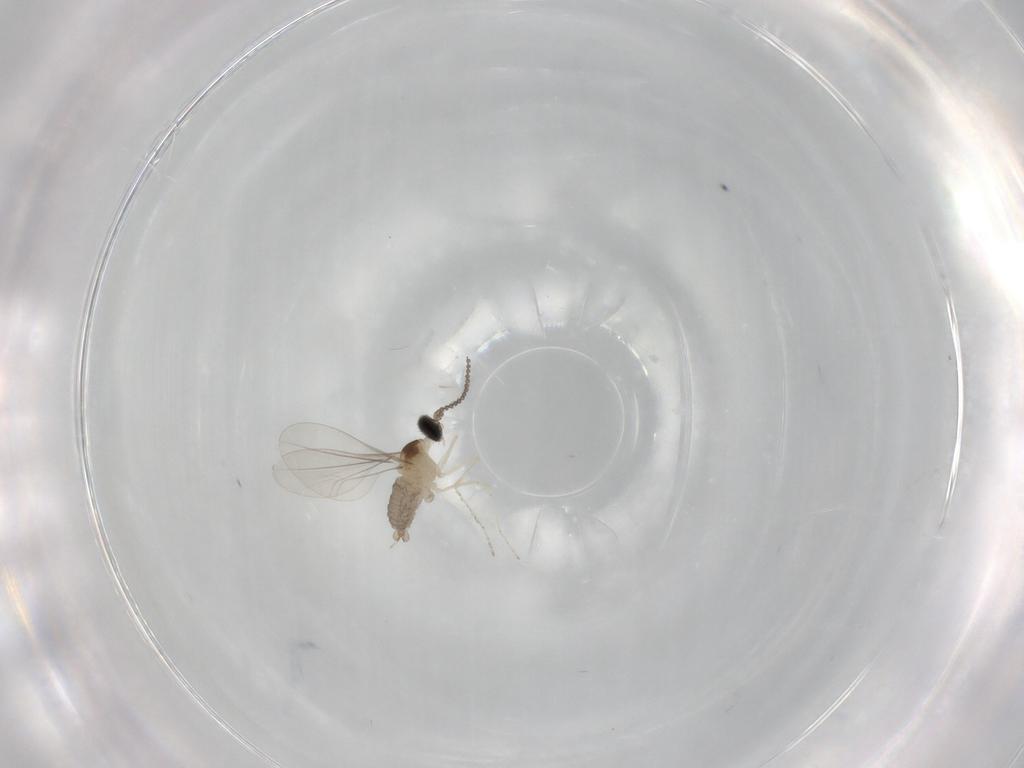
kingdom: Animalia
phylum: Arthropoda
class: Insecta
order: Diptera
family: Phoridae
